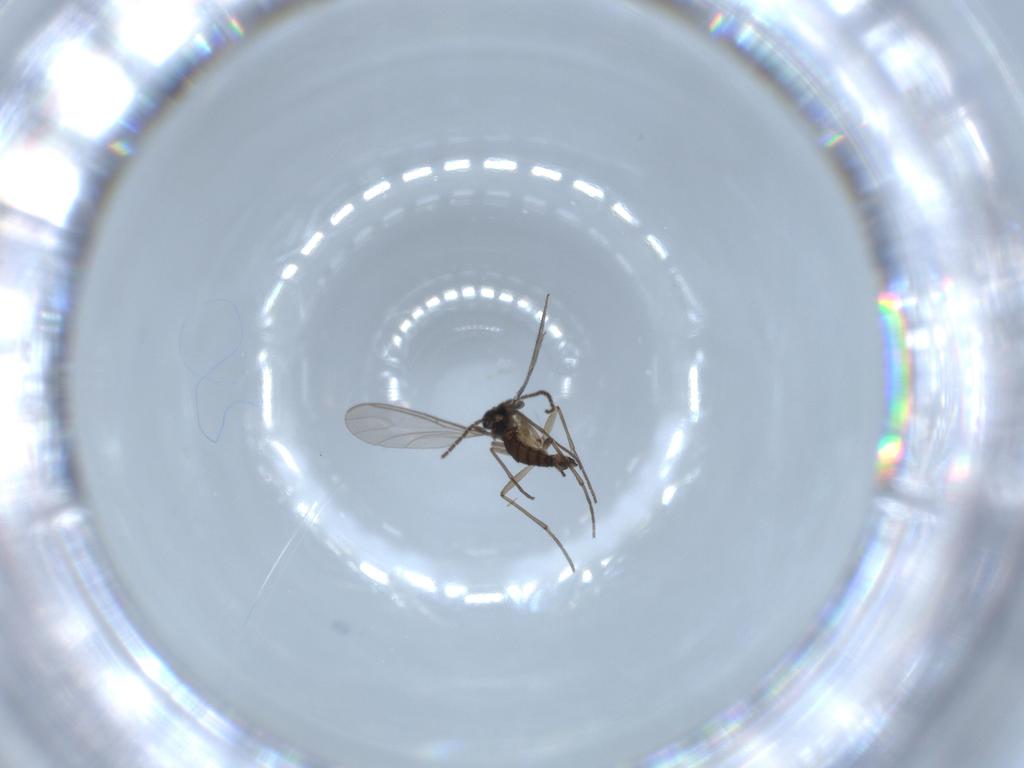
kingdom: Animalia
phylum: Arthropoda
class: Insecta
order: Diptera
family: Sciaridae
